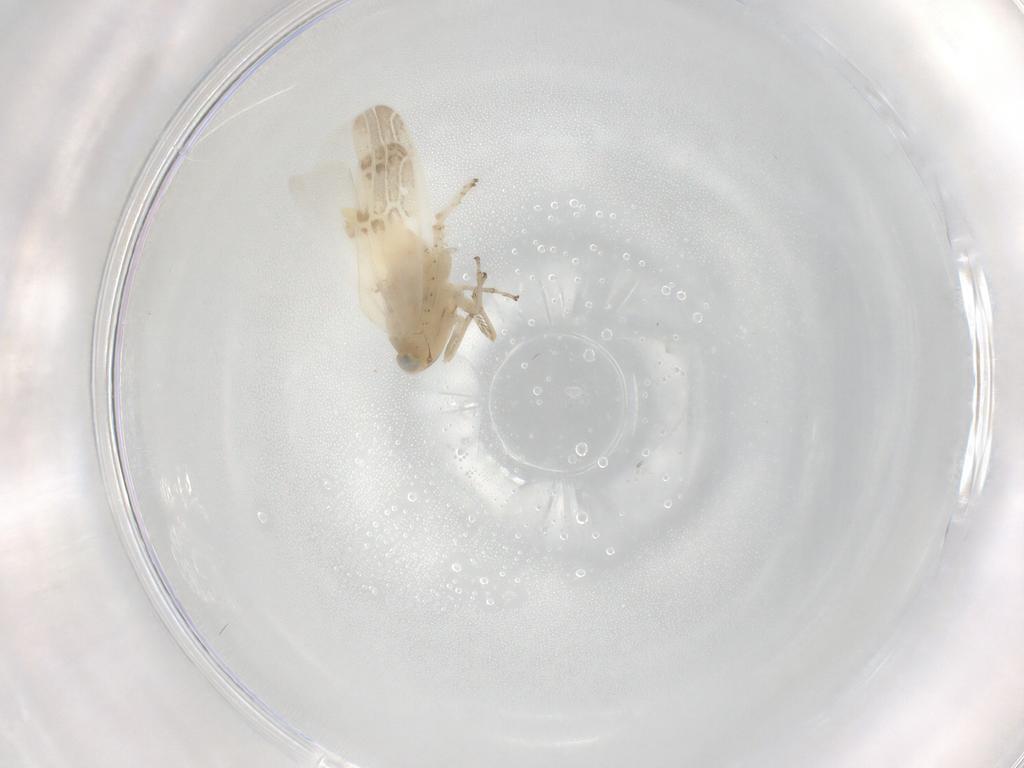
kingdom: Animalia
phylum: Arthropoda
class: Insecta
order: Hemiptera
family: Cicadellidae
